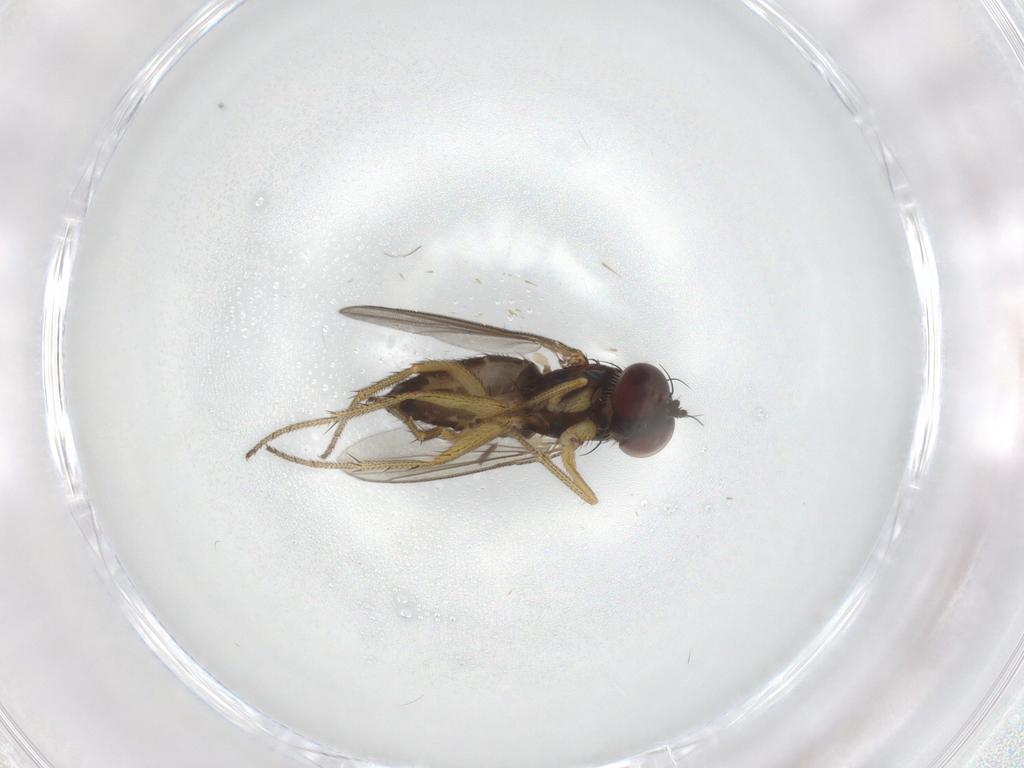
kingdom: Animalia
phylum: Arthropoda
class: Insecta
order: Diptera
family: Dolichopodidae
